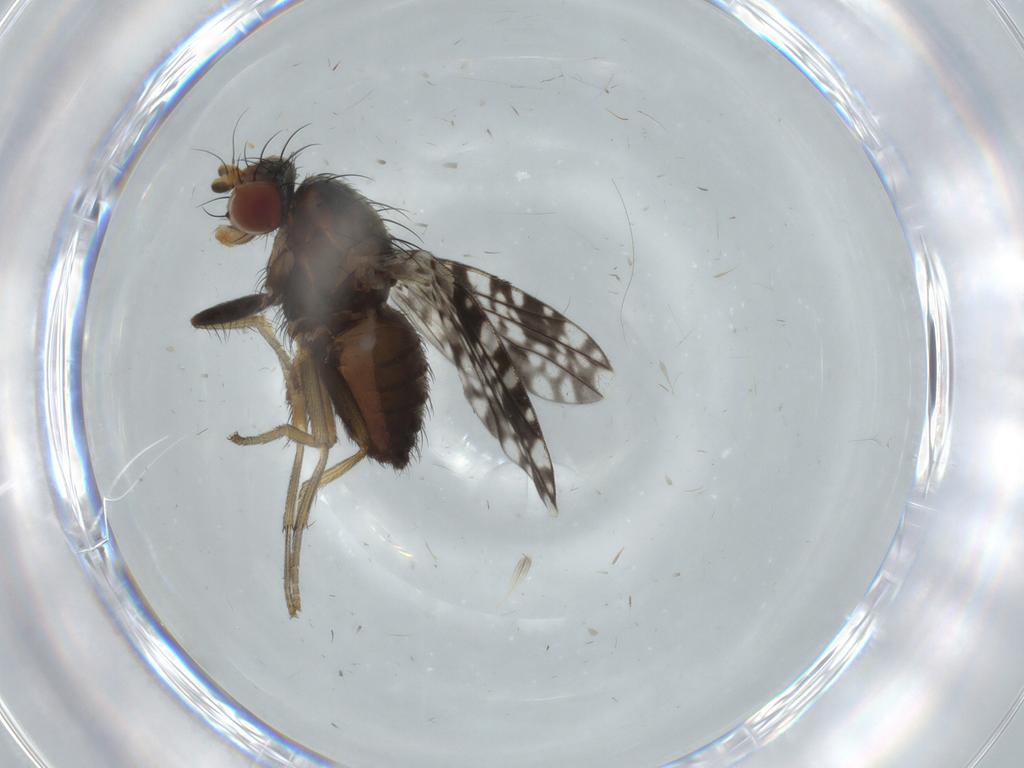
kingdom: Animalia
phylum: Arthropoda
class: Insecta
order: Diptera
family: Tephritidae
